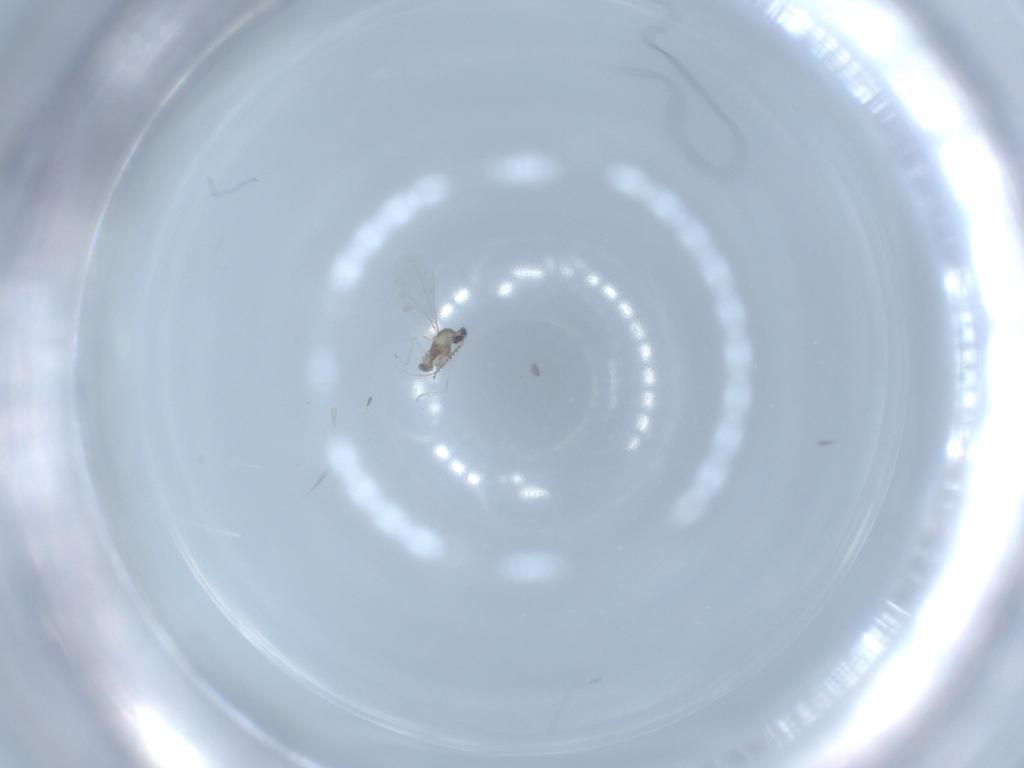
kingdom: Animalia
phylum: Arthropoda
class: Insecta
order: Diptera
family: Cecidomyiidae
